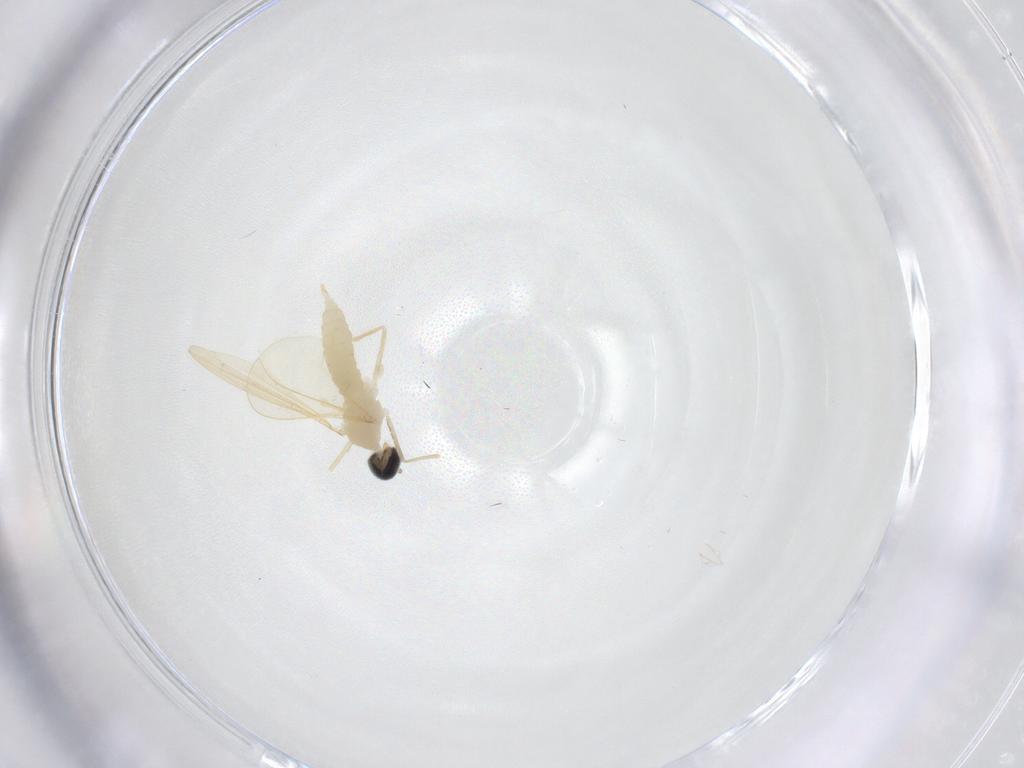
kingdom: Animalia
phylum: Arthropoda
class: Insecta
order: Diptera
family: Cecidomyiidae
